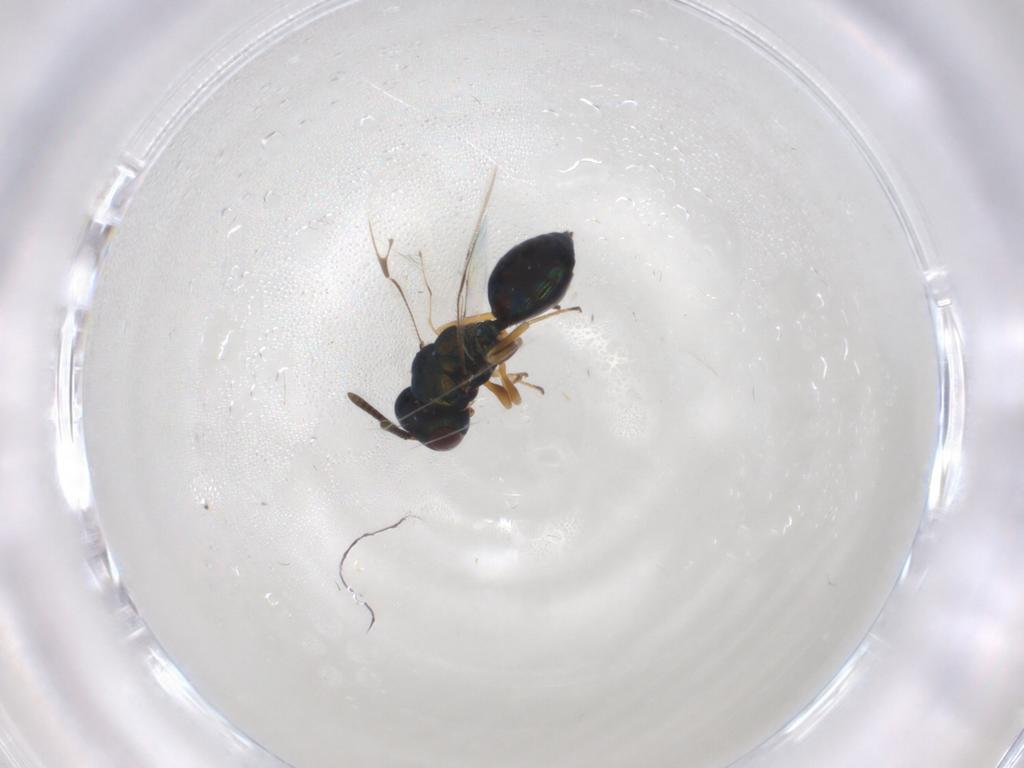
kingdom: Animalia
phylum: Arthropoda
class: Insecta
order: Hymenoptera
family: Pteromalidae
